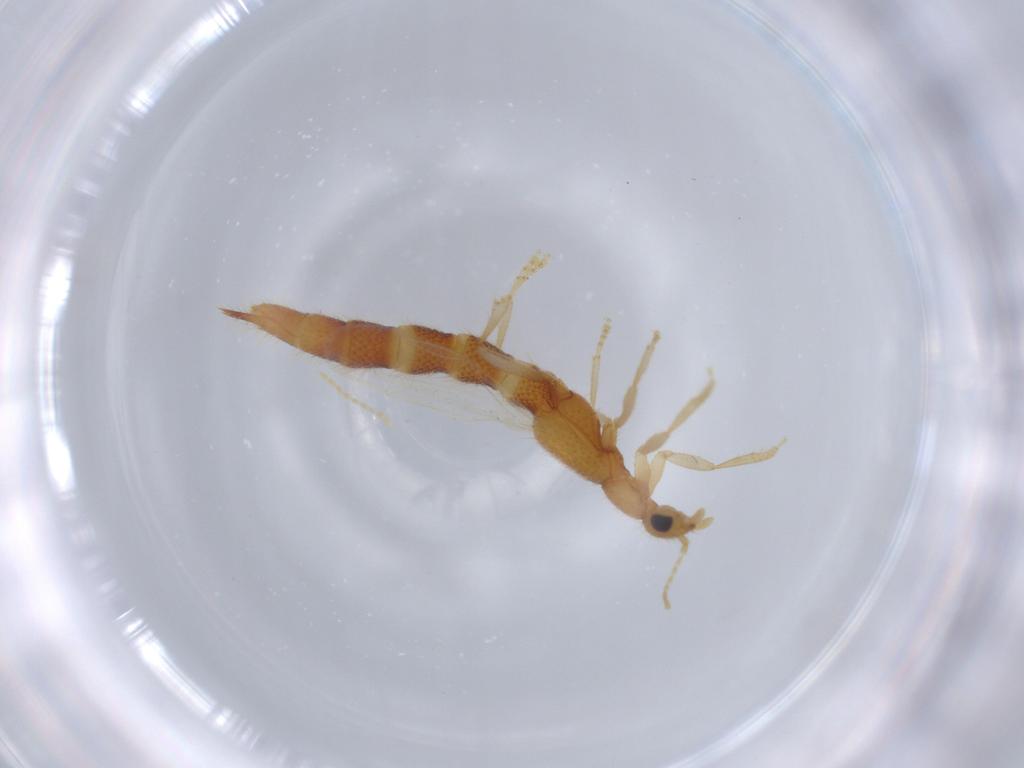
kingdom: Animalia
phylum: Arthropoda
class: Insecta
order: Coleoptera
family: Staphylinidae
